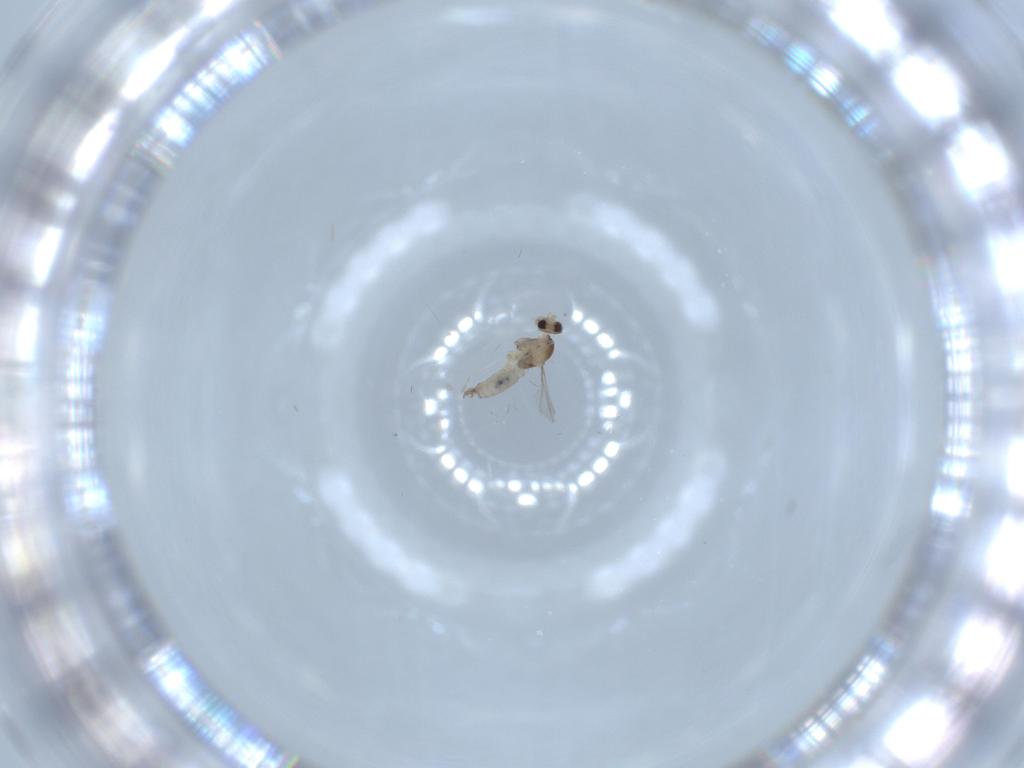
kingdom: Animalia
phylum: Arthropoda
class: Insecta
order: Diptera
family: Cecidomyiidae
